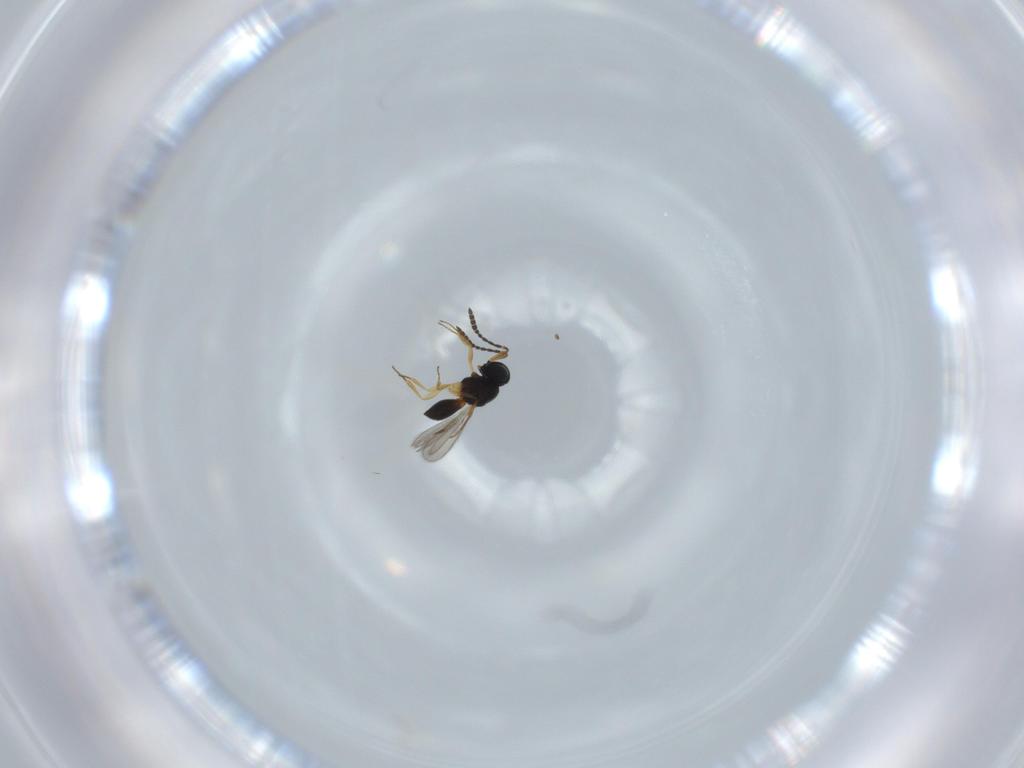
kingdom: Animalia
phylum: Arthropoda
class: Insecta
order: Hymenoptera
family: Scelionidae
